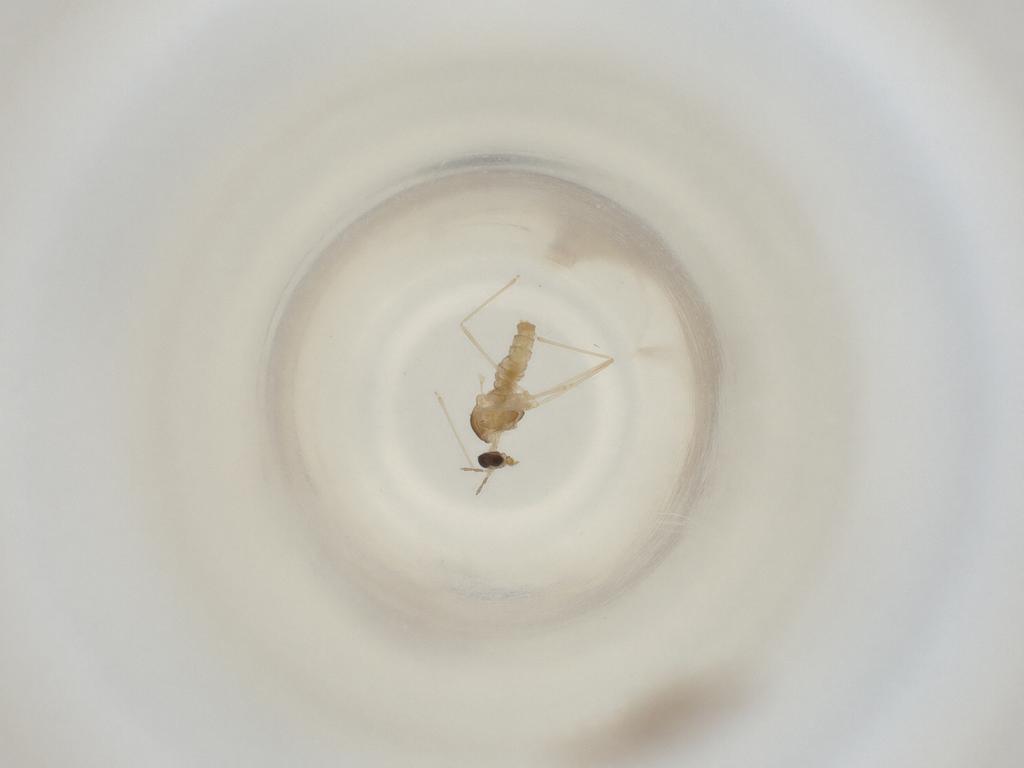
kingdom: Animalia
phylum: Arthropoda
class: Insecta
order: Diptera
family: Cecidomyiidae
